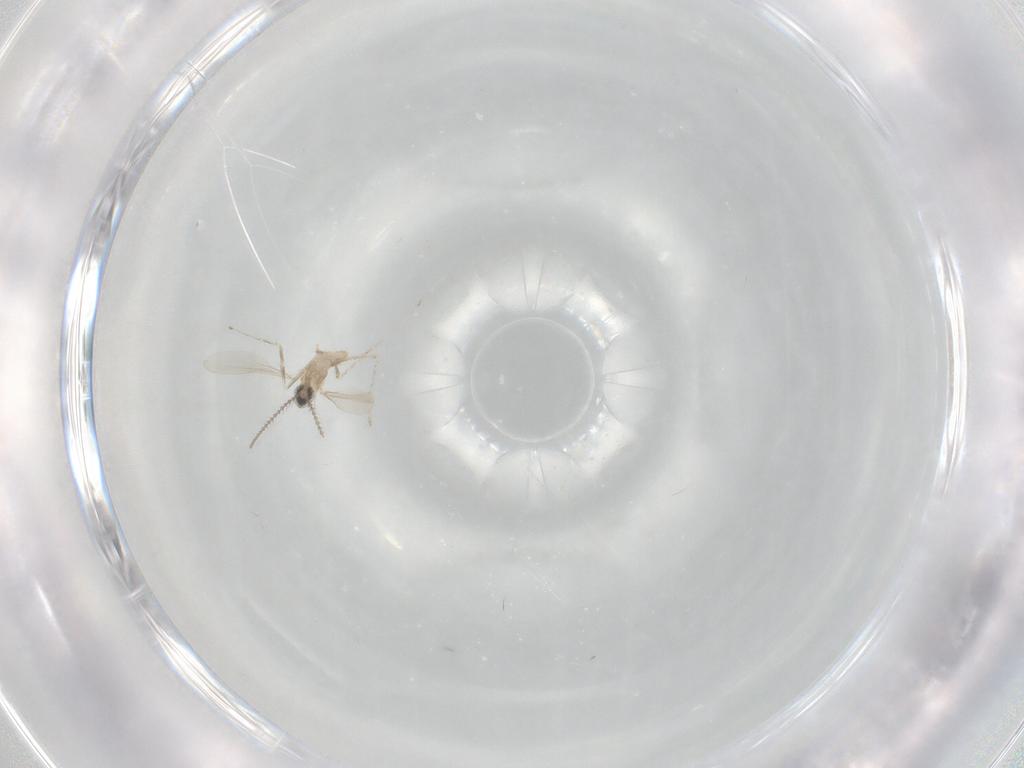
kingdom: Animalia
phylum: Arthropoda
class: Insecta
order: Diptera
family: Cecidomyiidae
